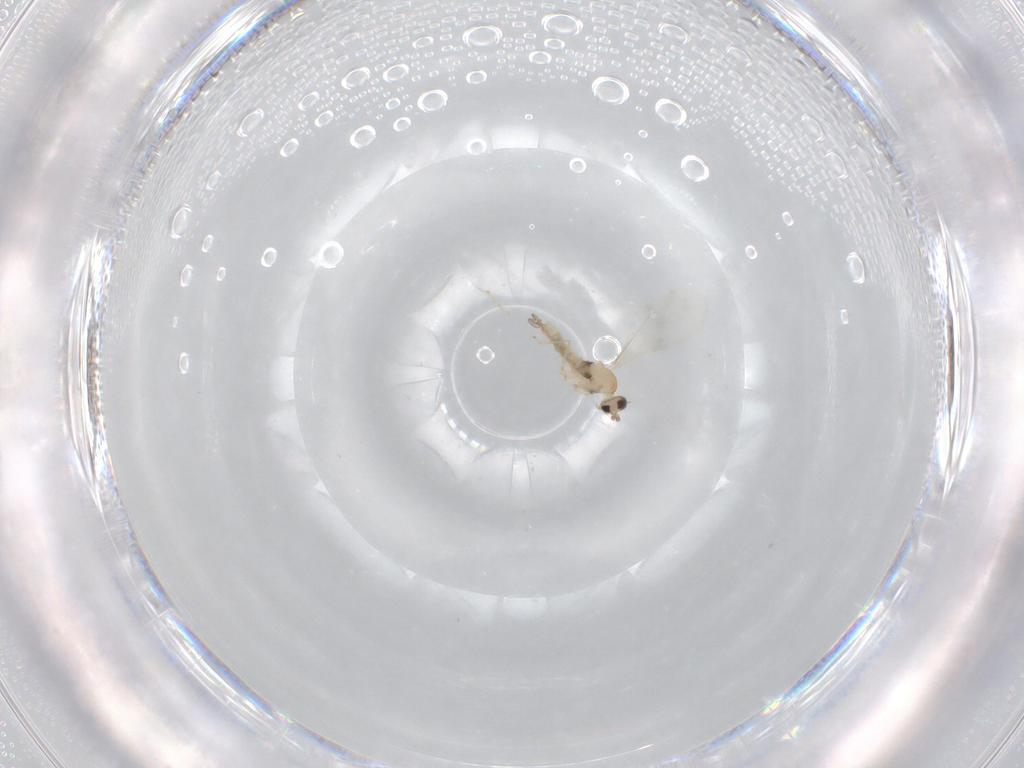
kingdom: Animalia
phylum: Arthropoda
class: Insecta
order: Diptera
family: Cecidomyiidae
